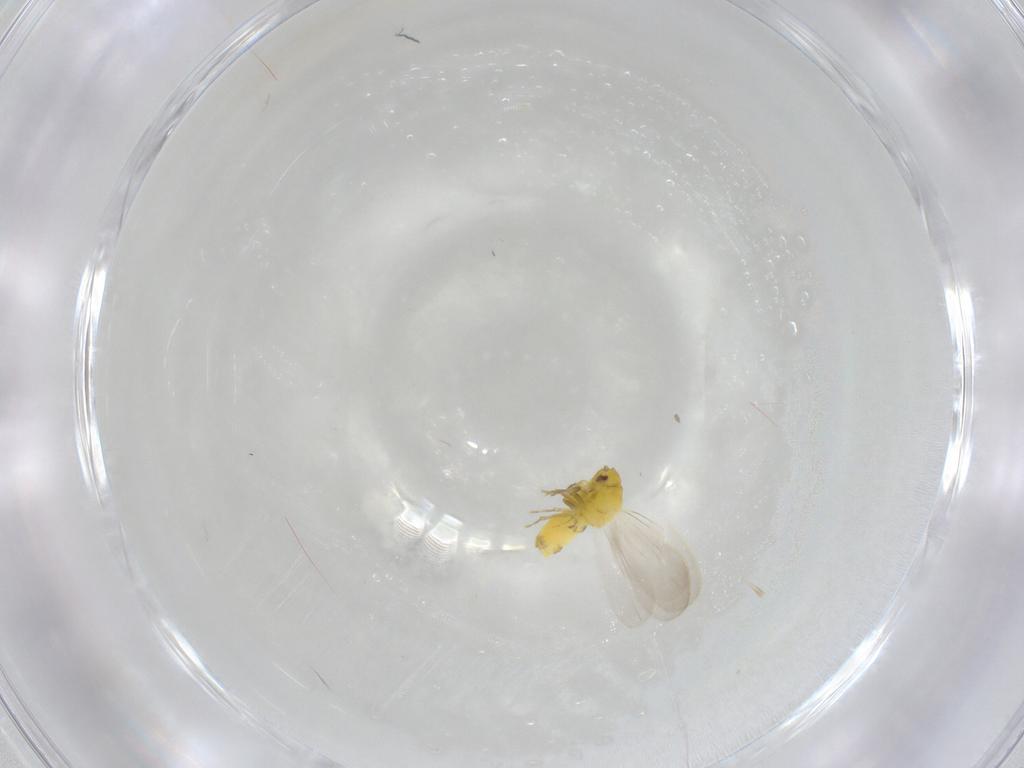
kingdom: Animalia
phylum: Arthropoda
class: Insecta
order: Hemiptera
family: Aleyrodidae
